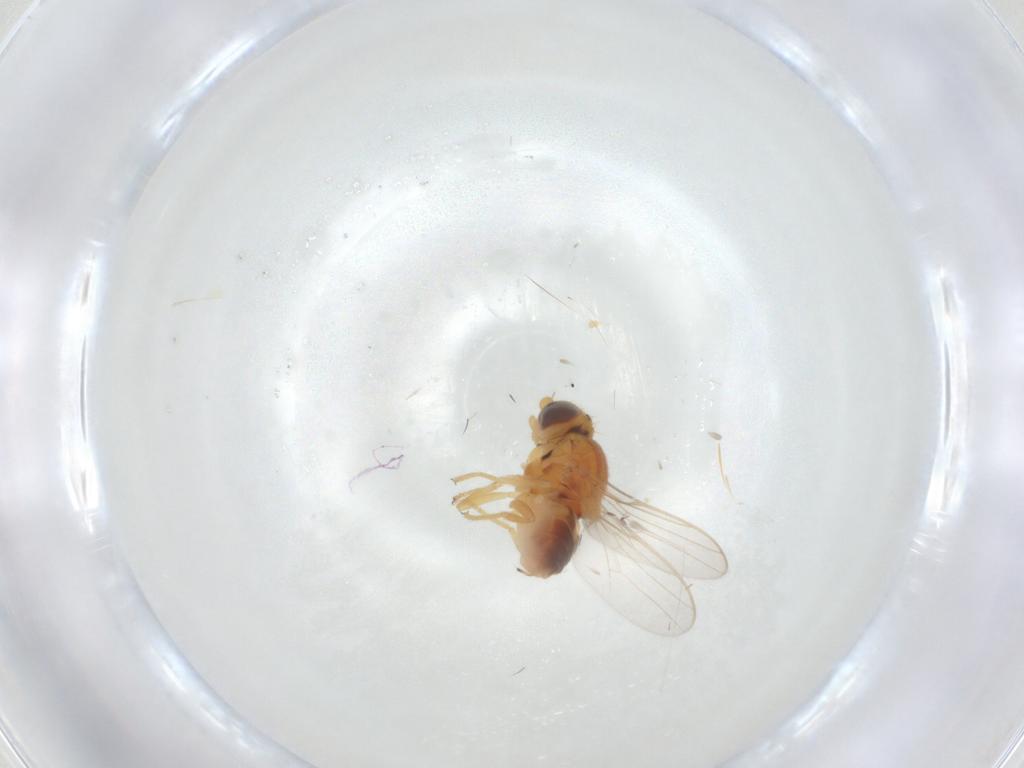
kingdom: Animalia
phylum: Arthropoda
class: Insecta
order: Diptera
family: Chloropidae
